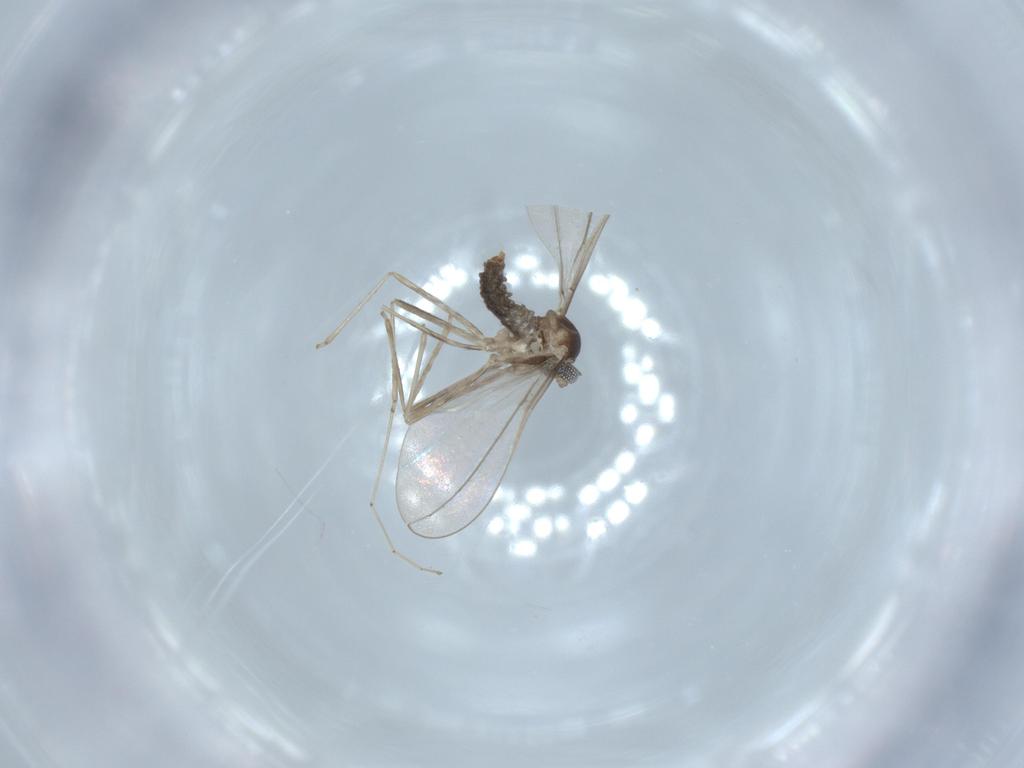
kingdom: Animalia
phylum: Arthropoda
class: Insecta
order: Diptera
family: Cecidomyiidae
